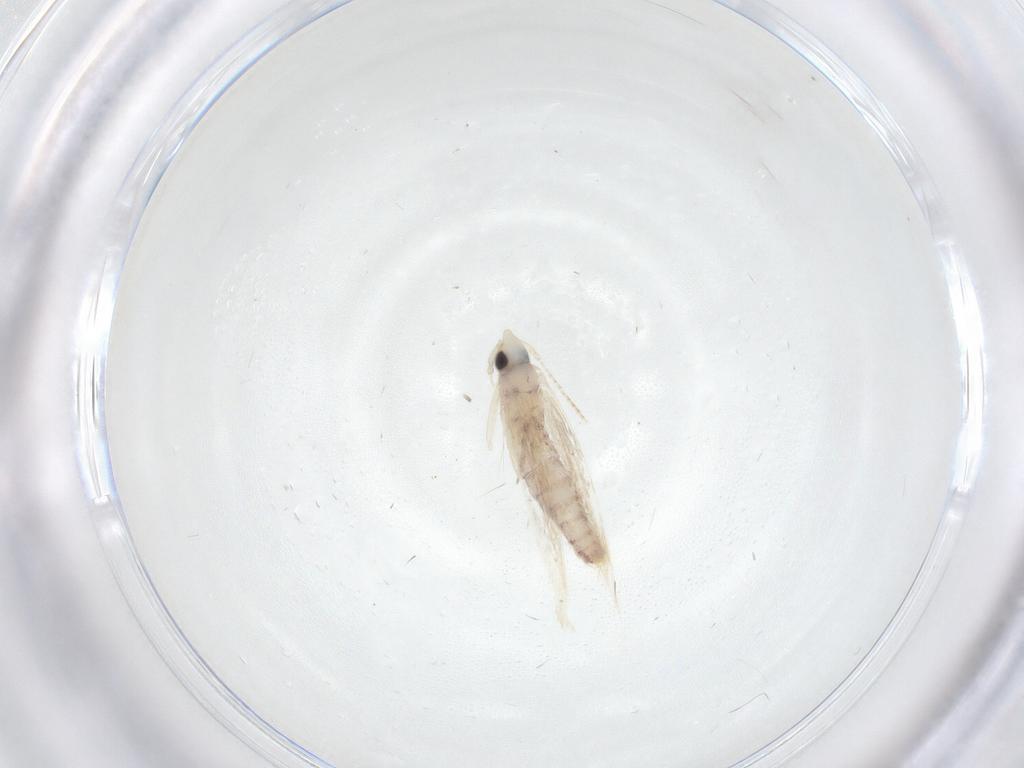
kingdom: Animalia
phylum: Arthropoda
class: Insecta
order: Lepidoptera
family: Tineidae
